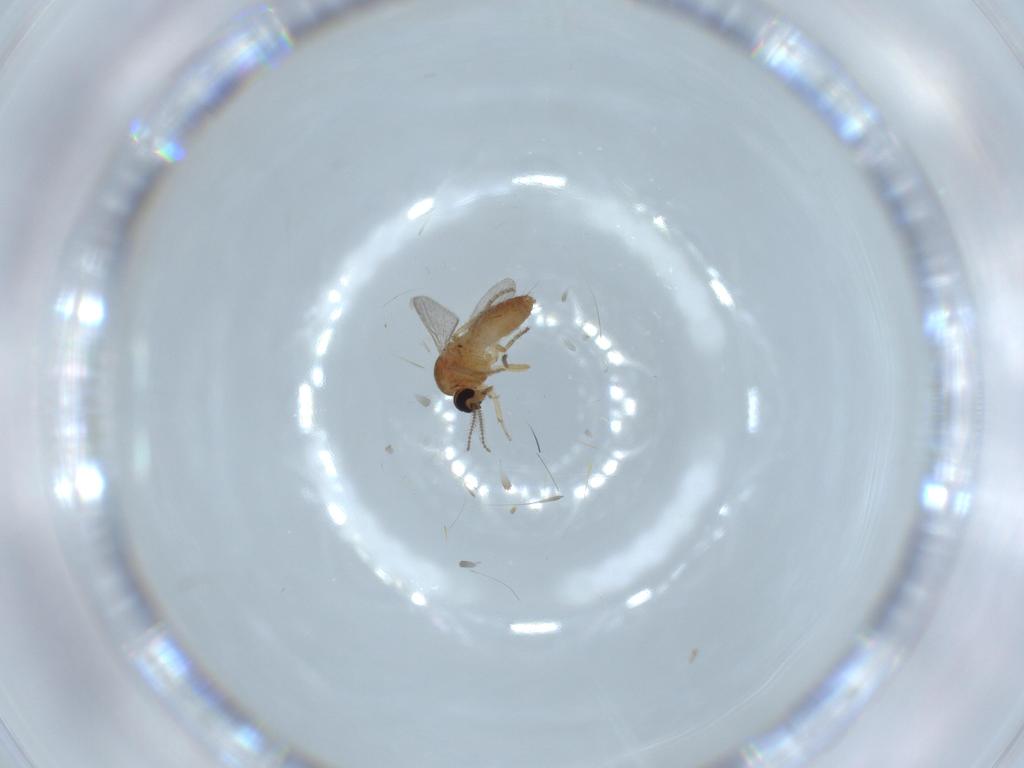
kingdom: Animalia
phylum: Arthropoda
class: Insecta
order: Diptera
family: Ceratopogonidae
